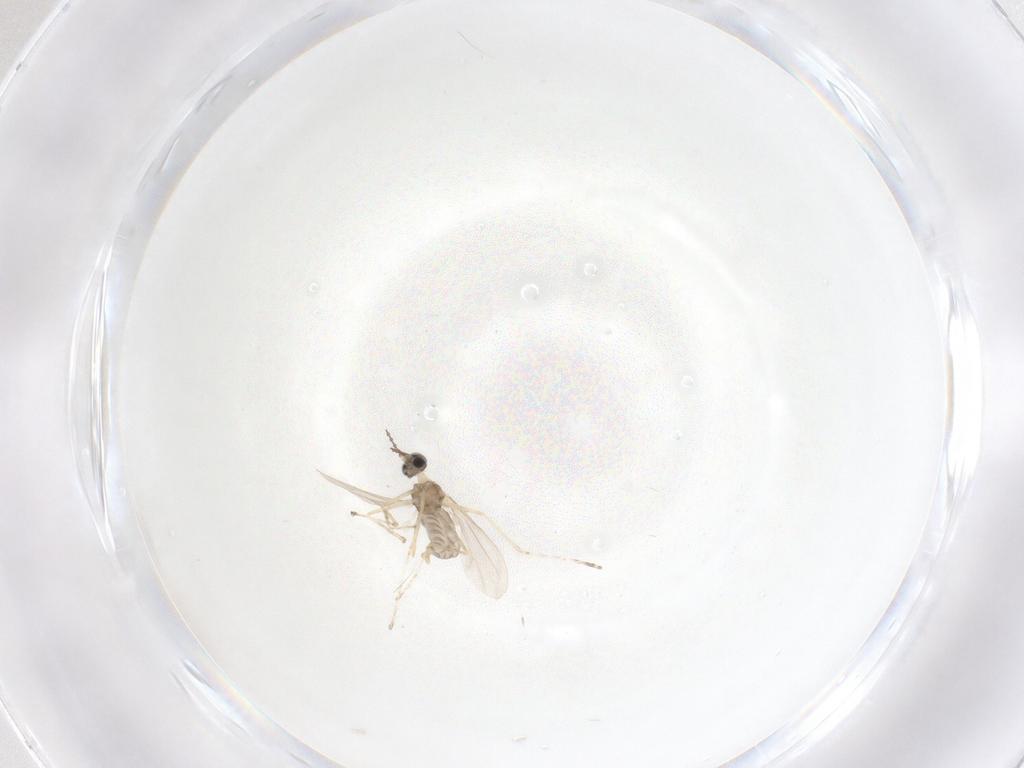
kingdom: Animalia
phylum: Arthropoda
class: Insecta
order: Diptera
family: Cecidomyiidae
